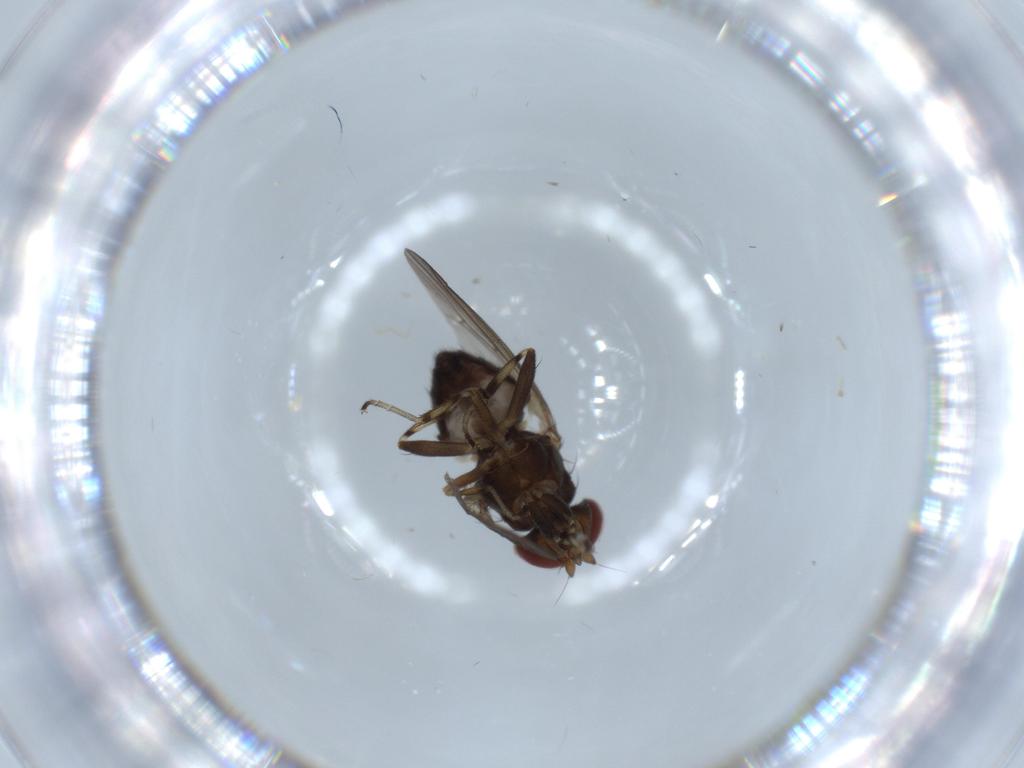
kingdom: Animalia
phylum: Arthropoda
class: Insecta
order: Diptera
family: Heleomyzidae
